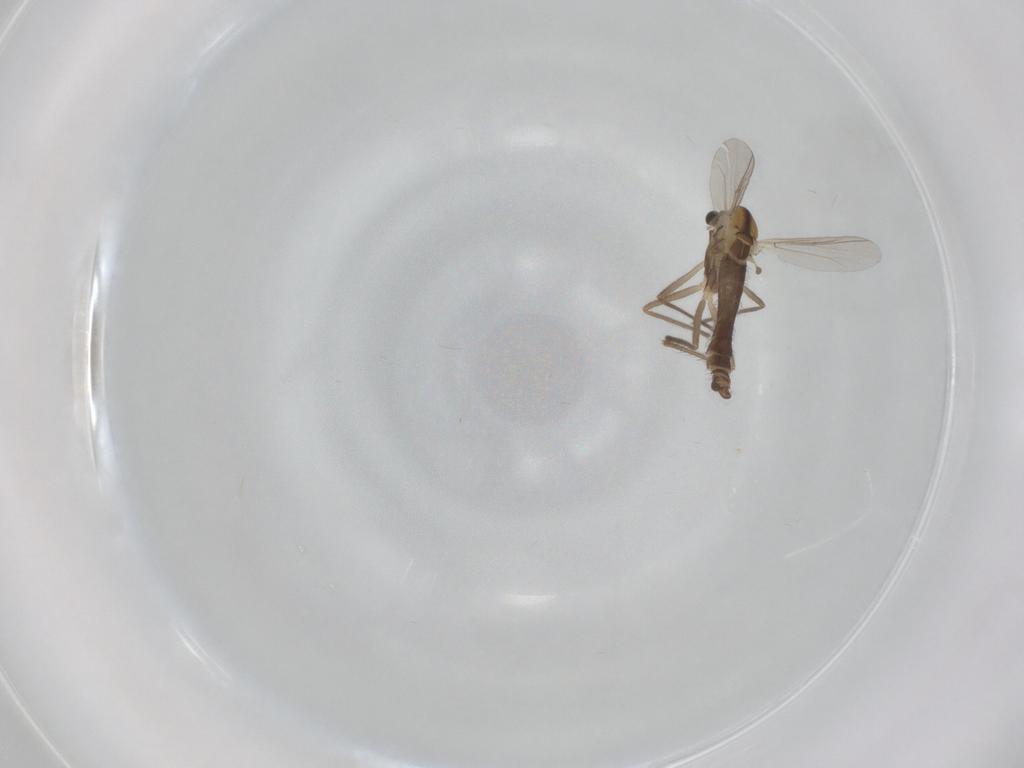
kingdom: Animalia
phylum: Arthropoda
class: Insecta
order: Diptera
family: Chironomidae
